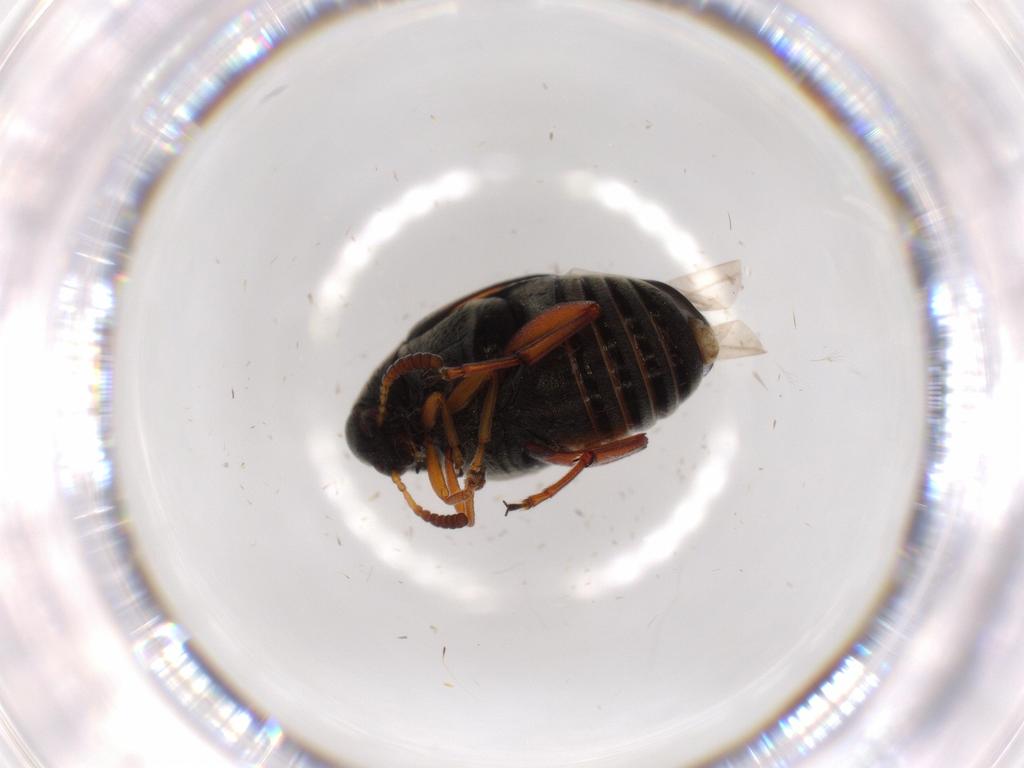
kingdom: Animalia
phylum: Arthropoda
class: Insecta
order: Coleoptera
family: Chrysomelidae
